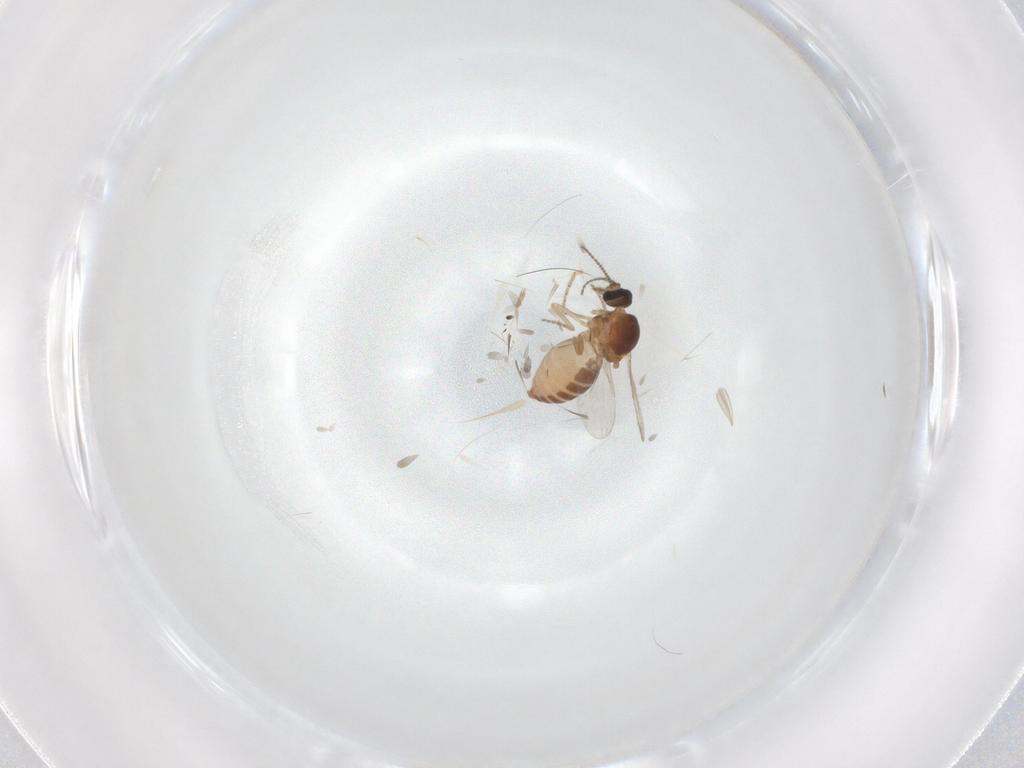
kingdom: Animalia
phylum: Arthropoda
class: Insecta
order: Diptera
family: Ceratopogonidae
